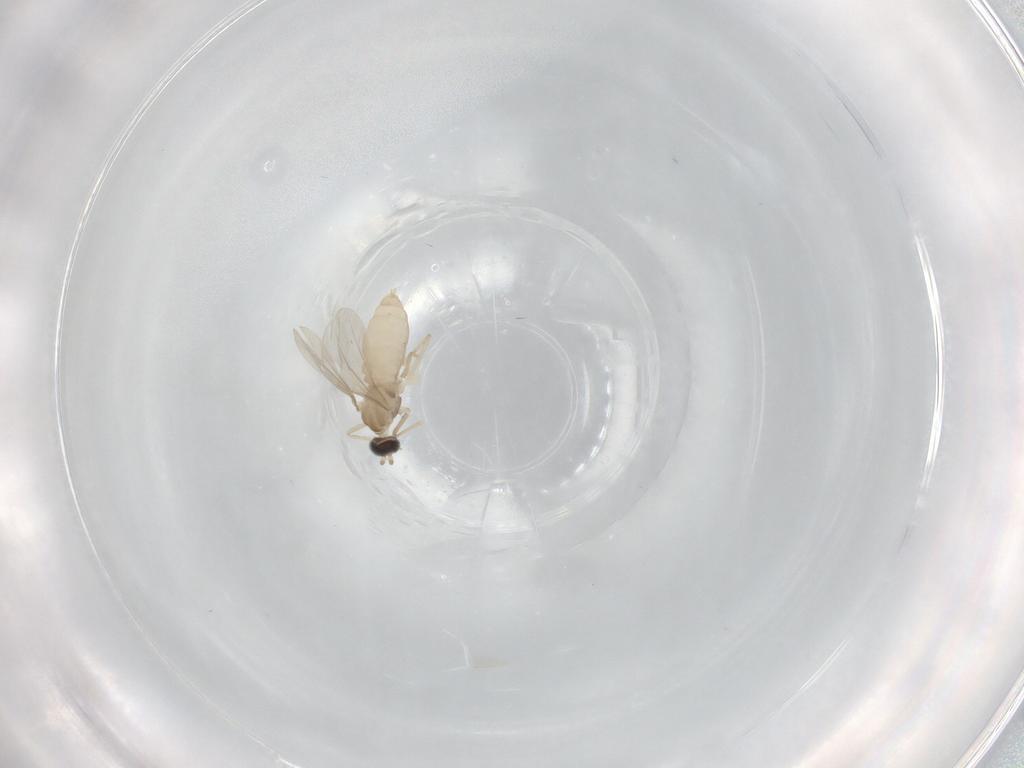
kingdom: Animalia
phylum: Arthropoda
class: Insecta
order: Diptera
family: Cecidomyiidae
